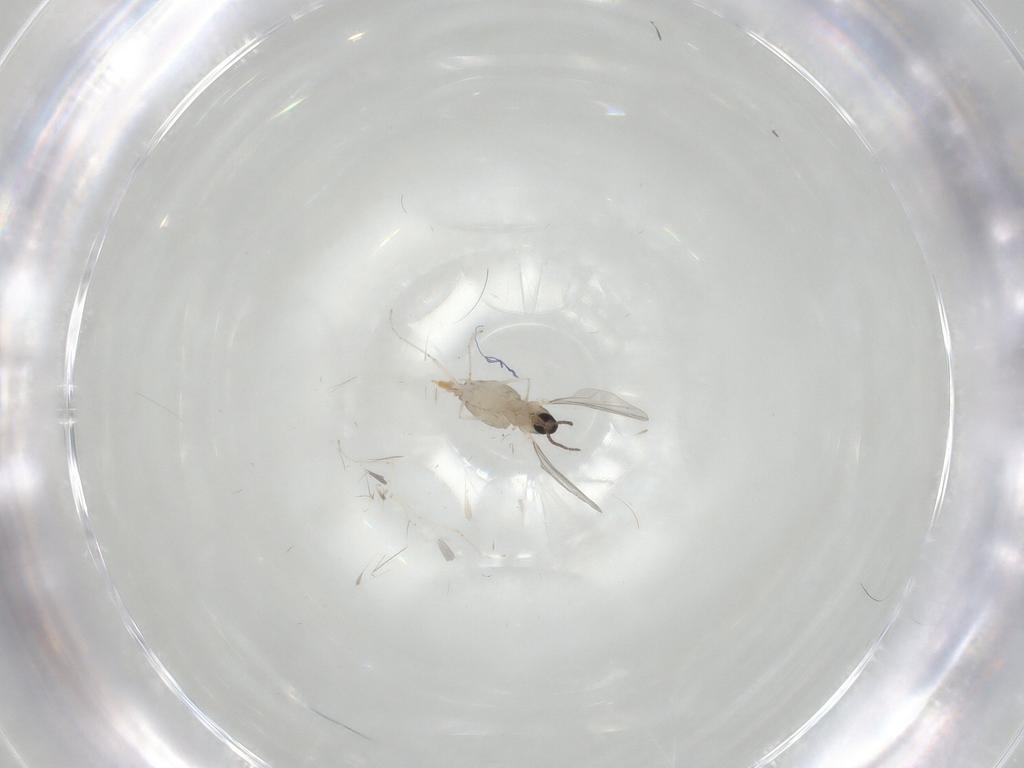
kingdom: Animalia
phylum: Arthropoda
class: Insecta
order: Diptera
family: Cecidomyiidae
